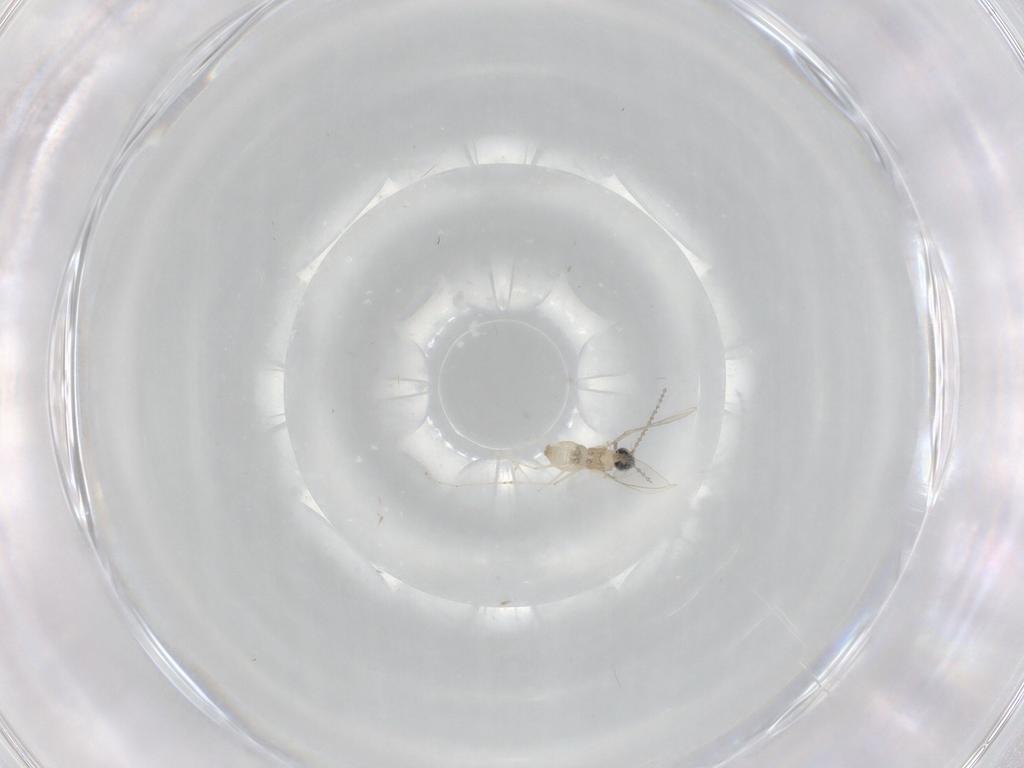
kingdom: Animalia
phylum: Arthropoda
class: Insecta
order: Diptera
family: Cecidomyiidae
